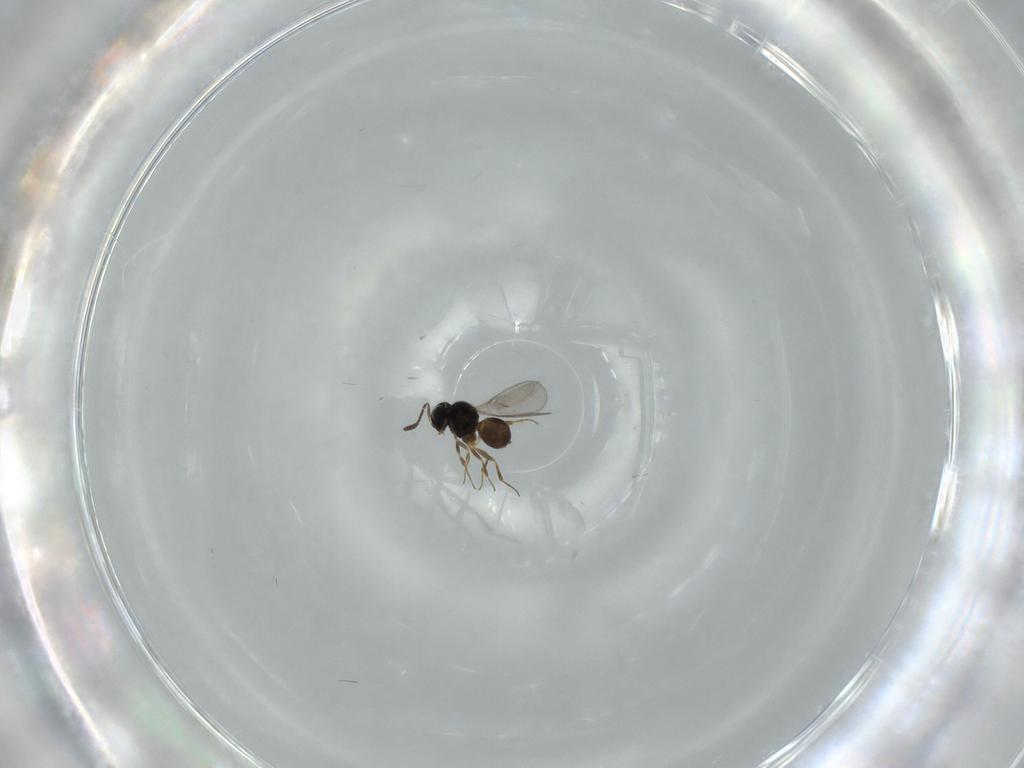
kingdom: Animalia
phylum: Arthropoda
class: Insecta
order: Hymenoptera
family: Scelionidae
